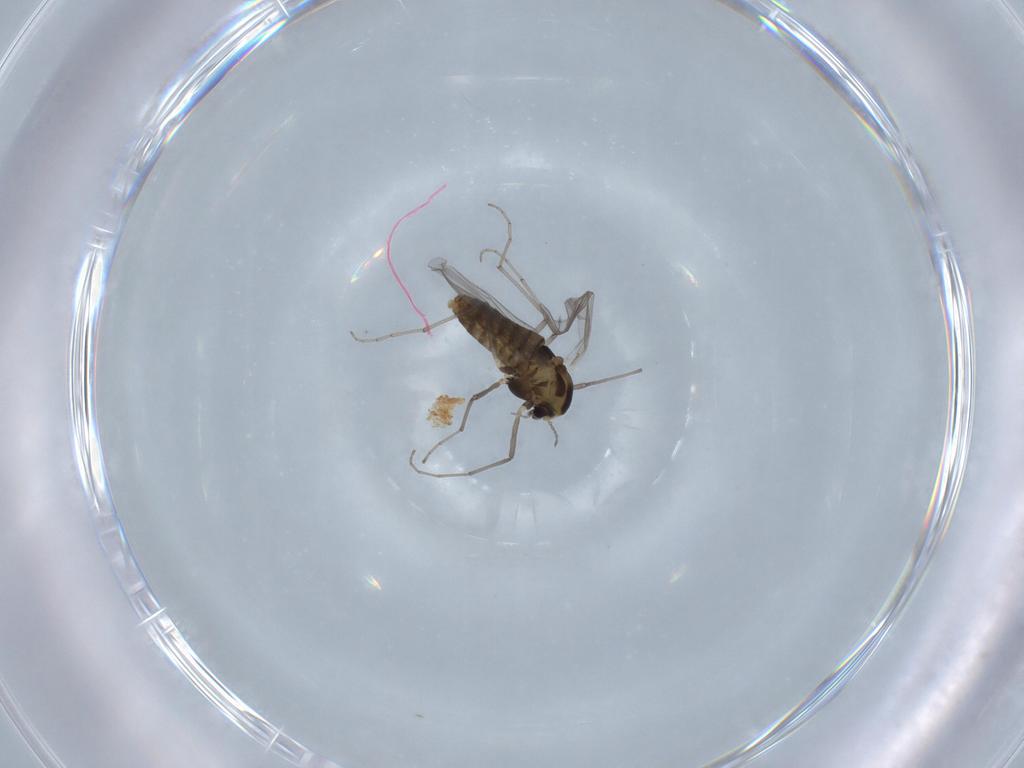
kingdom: Animalia
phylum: Arthropoda
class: Insecta
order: Diptera
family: Chironomidae
